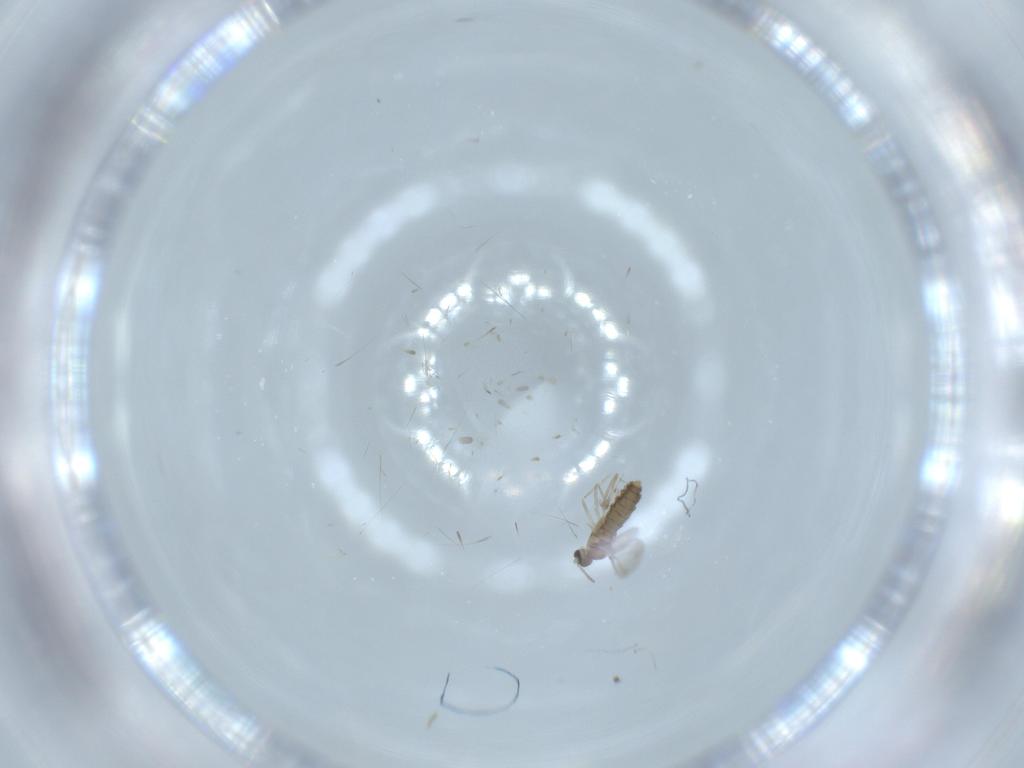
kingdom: Animalia
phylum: Arthropoda
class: Insecta
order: Diptera
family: Cecidomyiidae
